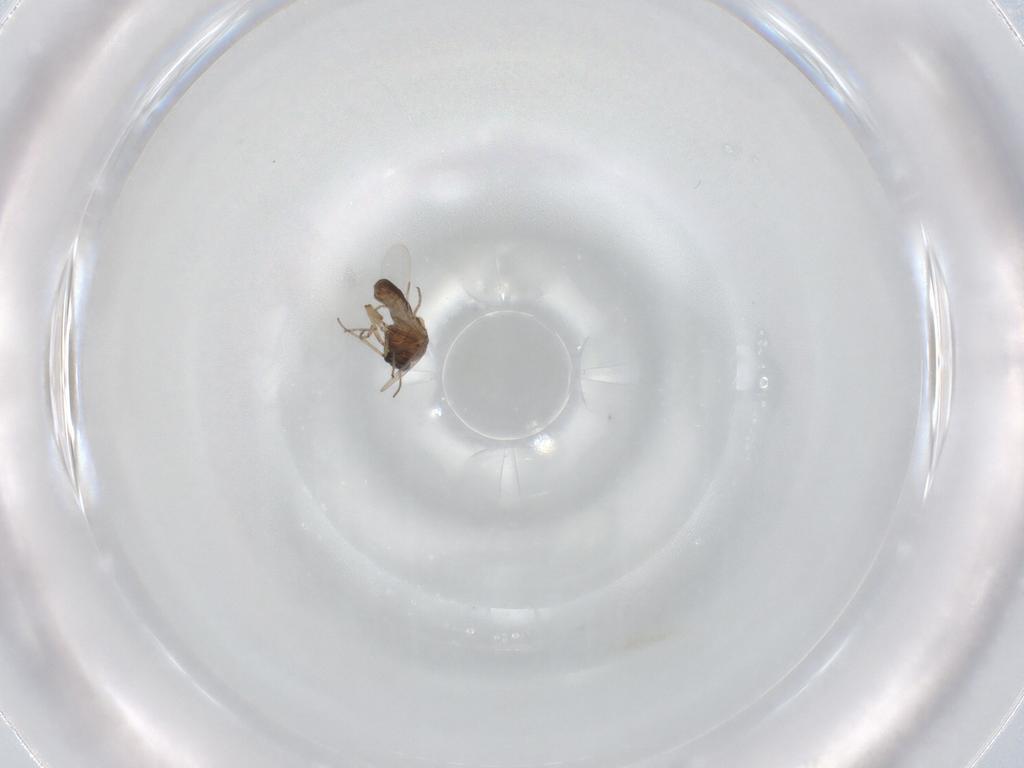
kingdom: Animalia
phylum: Arthropoda
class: Insecta
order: Diptera
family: Ceratopogonidae
